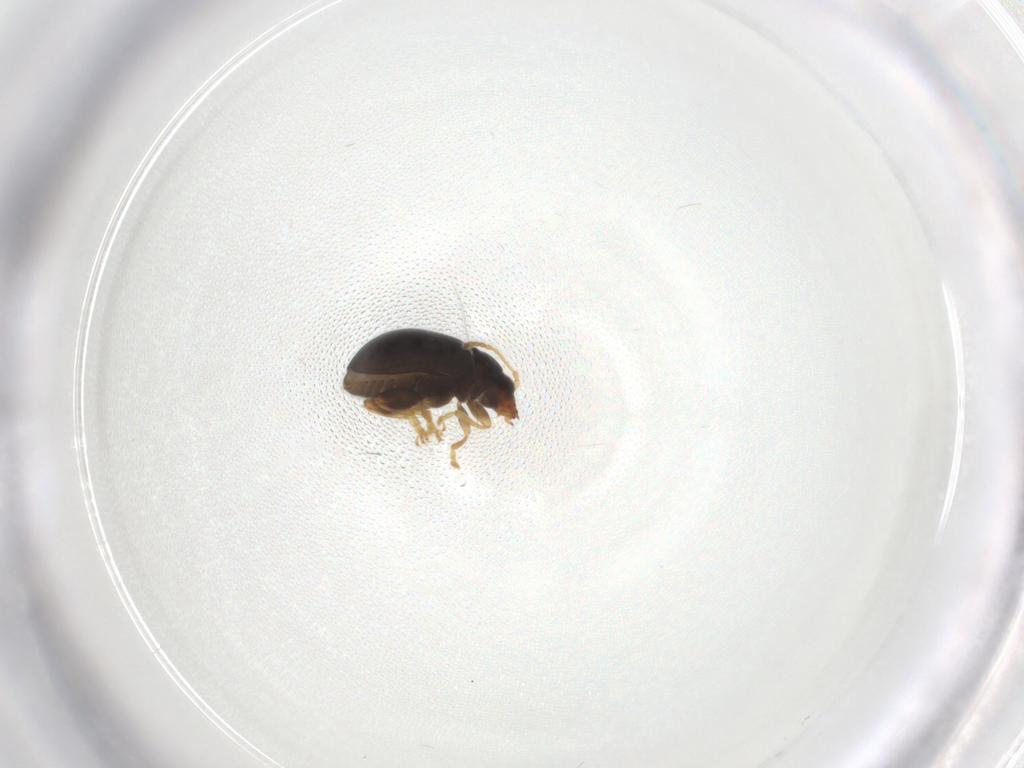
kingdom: Animalia
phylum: Arthropoda
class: Insecta
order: Coleoptera
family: Chrysomelidae
